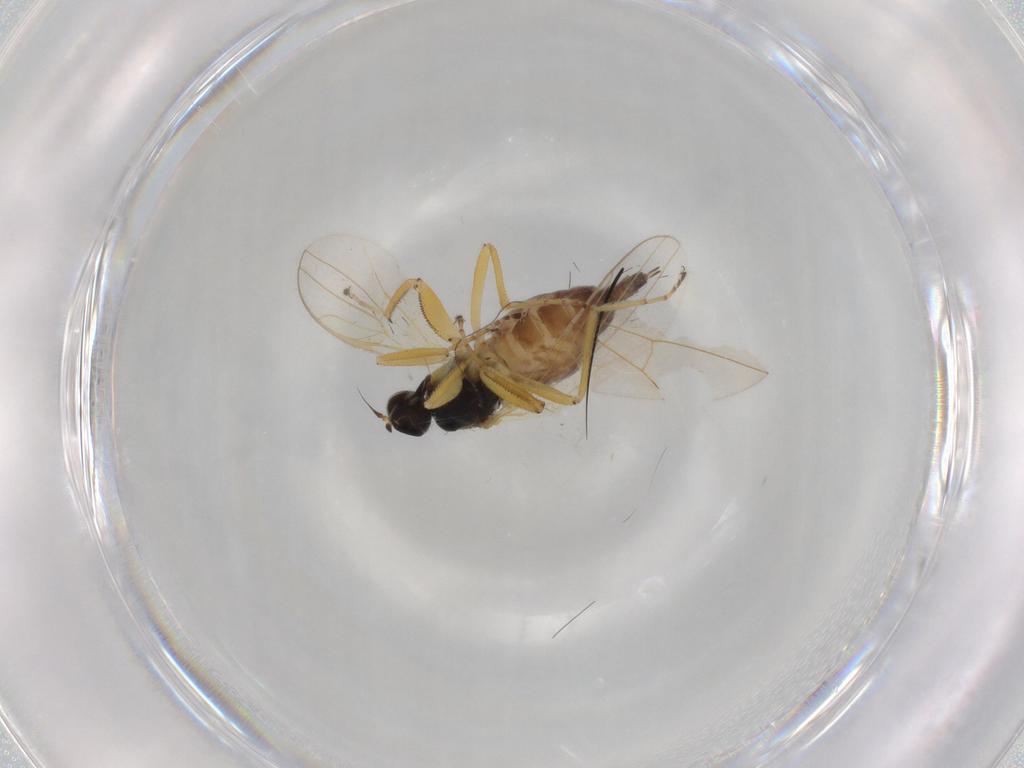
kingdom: Animalia
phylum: Arthropoda
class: Insecta
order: Diptera
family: Hybotidae
